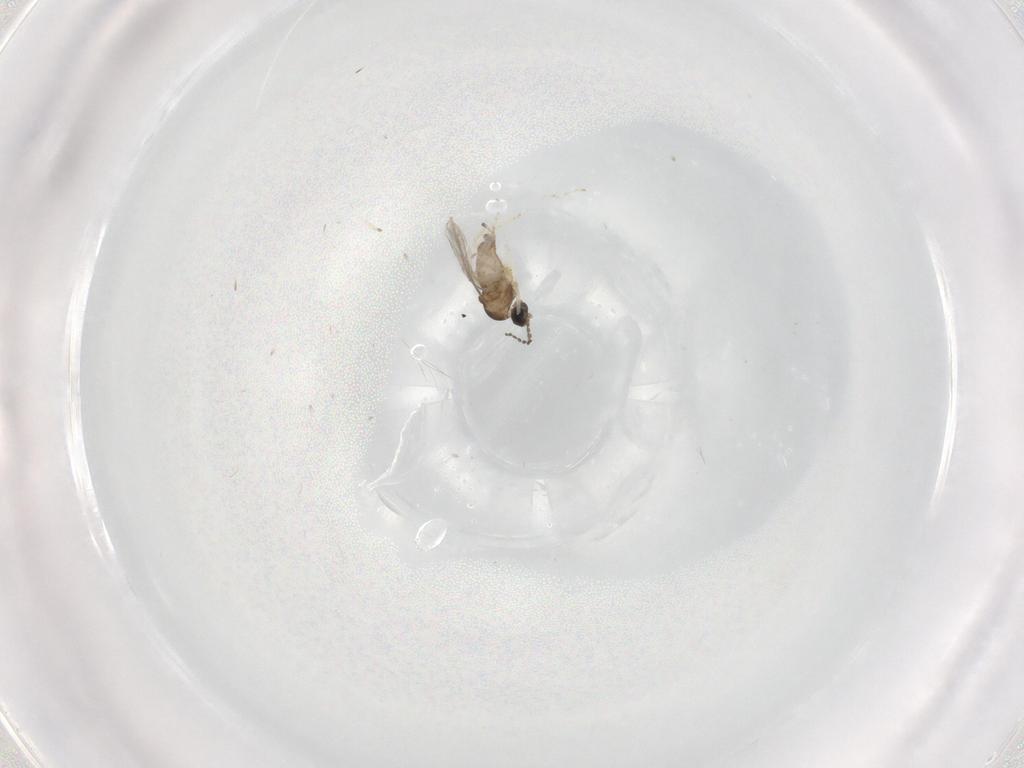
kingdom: Animalia
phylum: Arthropoda
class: Insecta
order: Diptera
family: Cecidomyiidae
